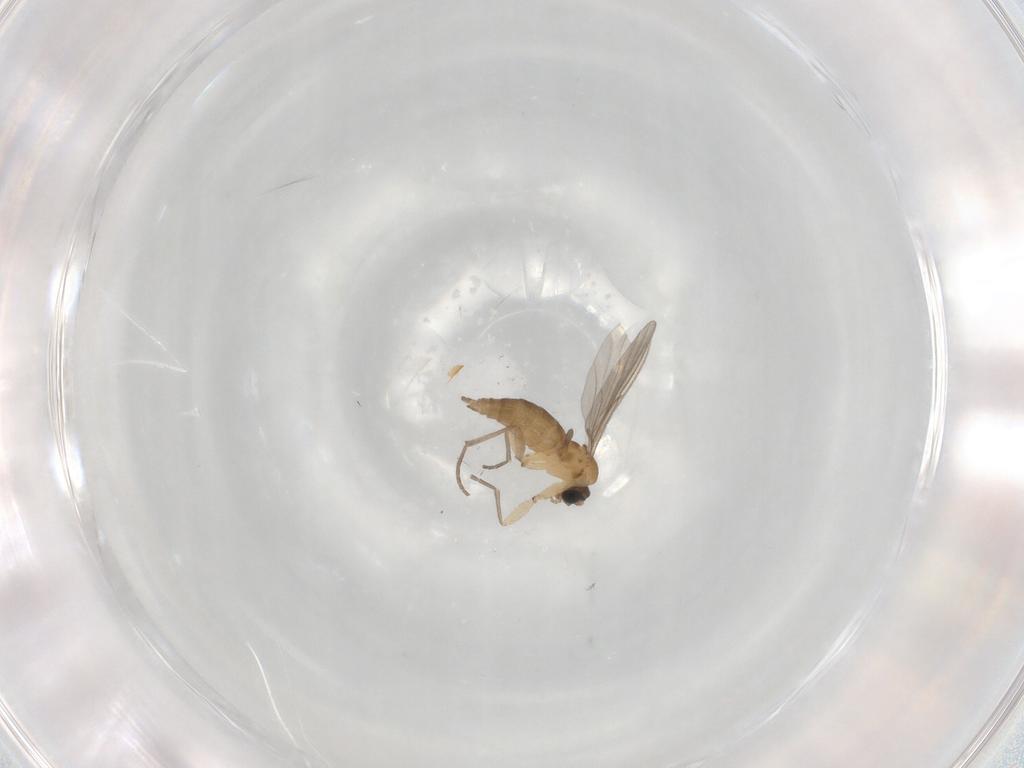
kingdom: Animalia
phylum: Arthropoda
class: Insecta
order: Diptera
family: Sciaridae
